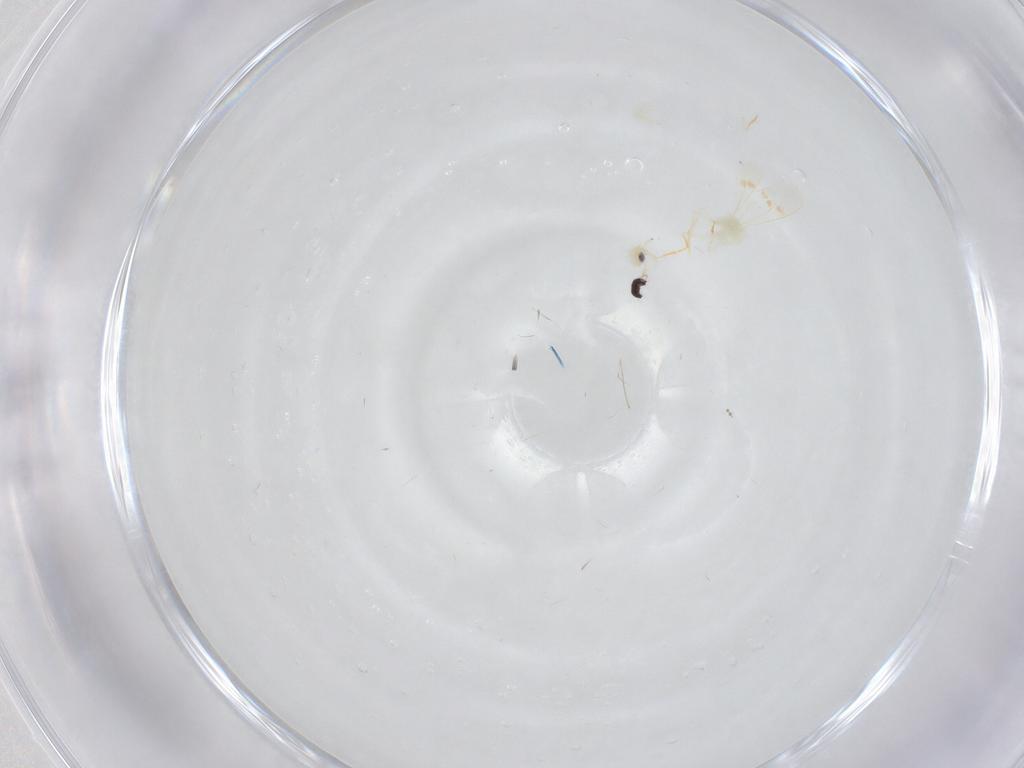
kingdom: Animalia
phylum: Arthropoda
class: Insecta
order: Hemiptera
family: Aleyrodidae
